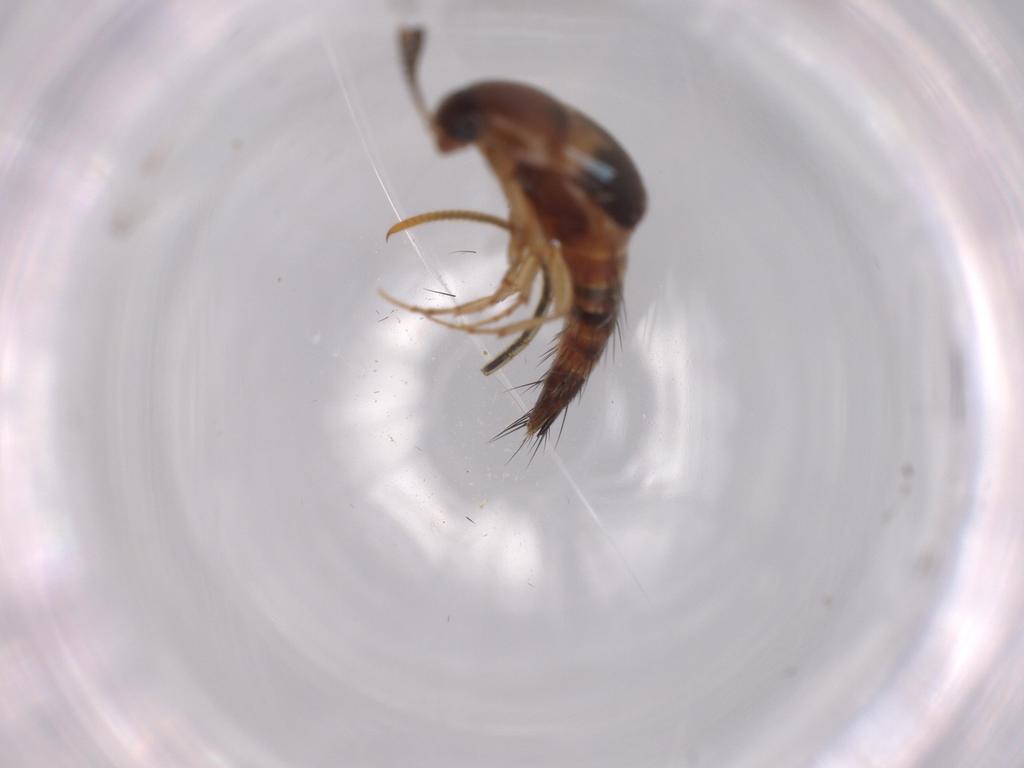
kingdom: Animalia
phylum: Arthropoda
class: Insecta
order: Coleoptera
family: Staphylinidae
